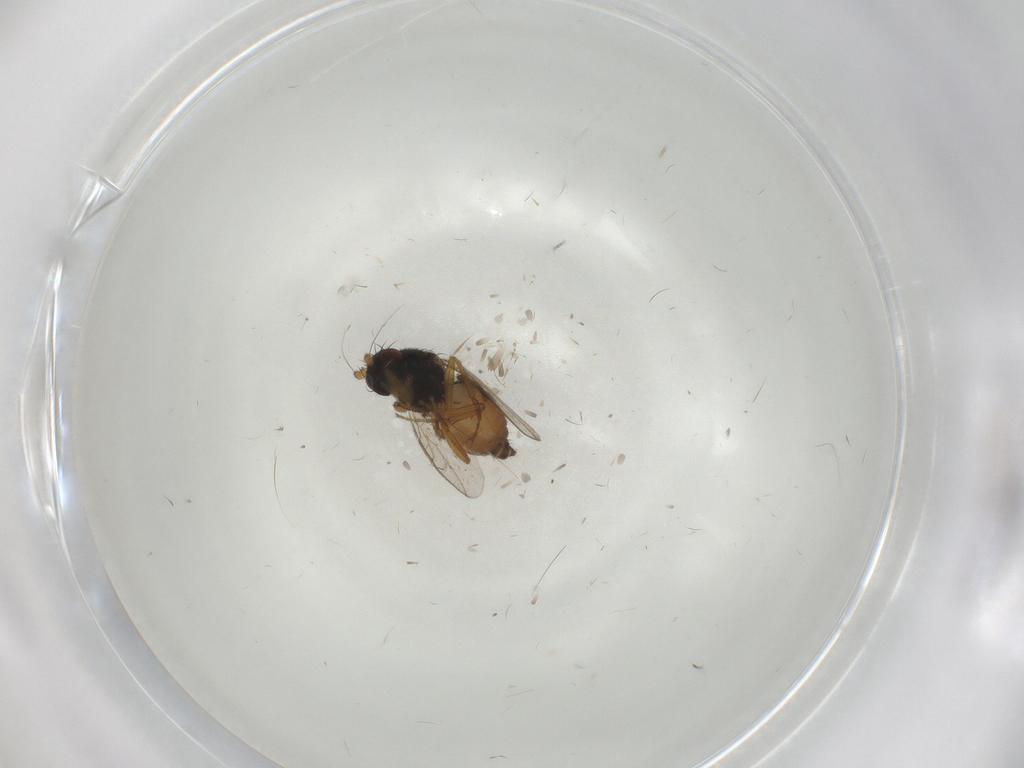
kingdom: Animalia
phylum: Arthropoda
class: Insecta
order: Diptera
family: Sphaeroceridae
